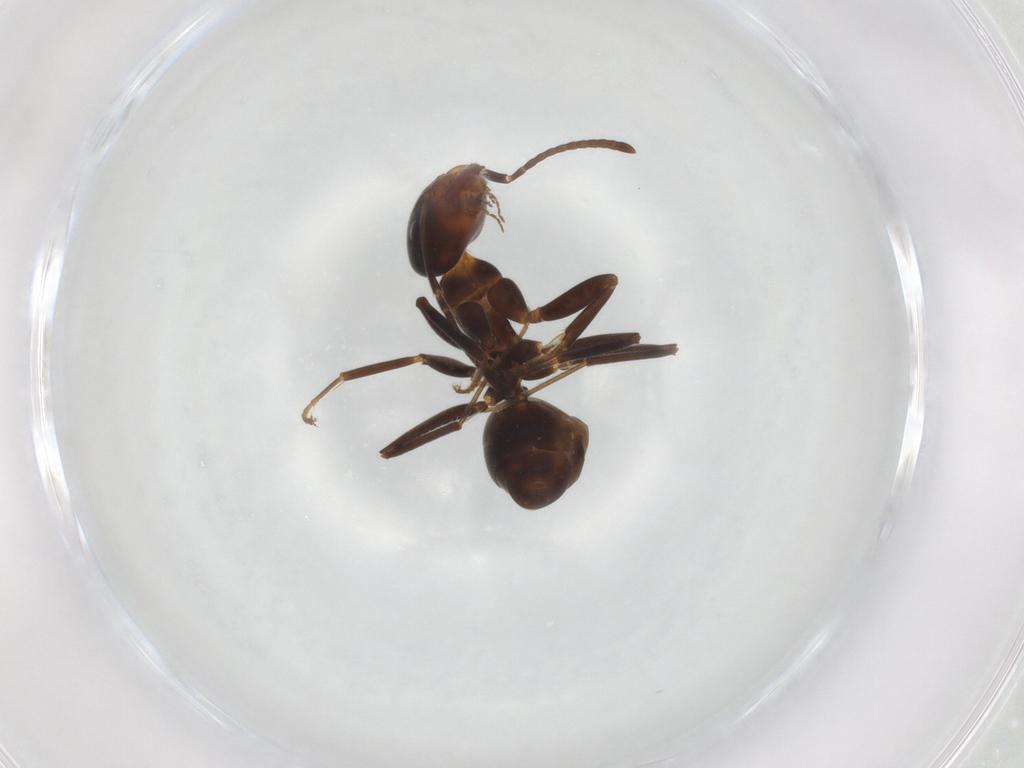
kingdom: Animalia
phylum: Arthropoda
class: Insecta
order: Hymenoptera
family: Formicidae
